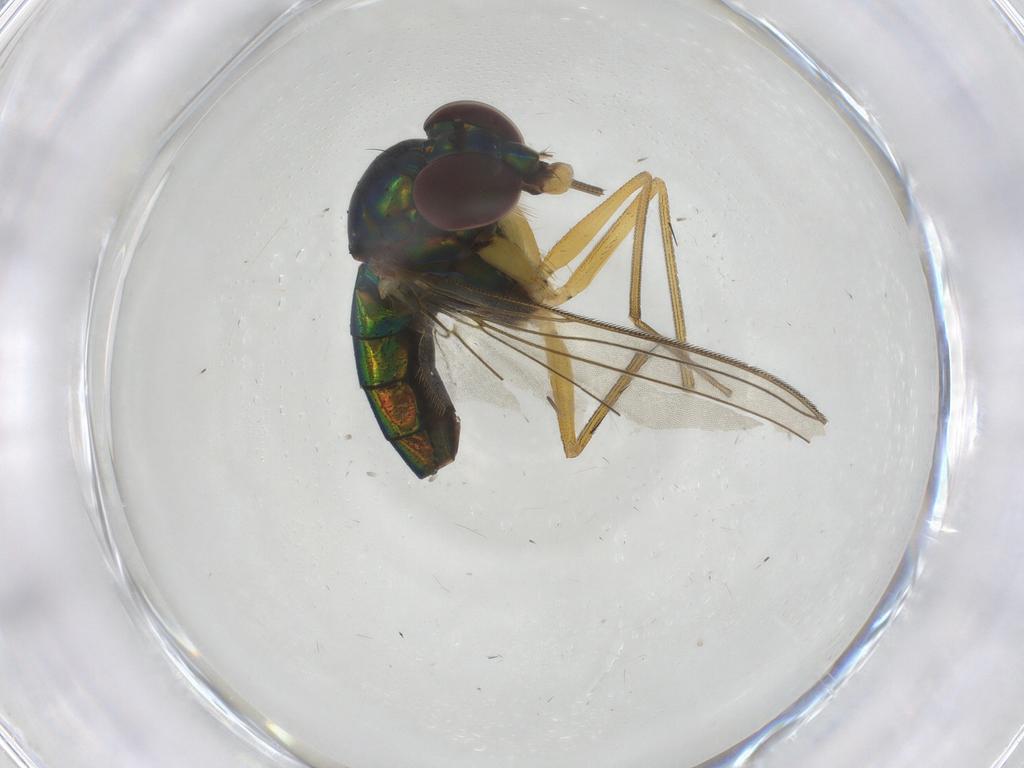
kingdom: Animalia
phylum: Arthropoda
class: Insecta
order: Diptera
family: Dolichopodidae
